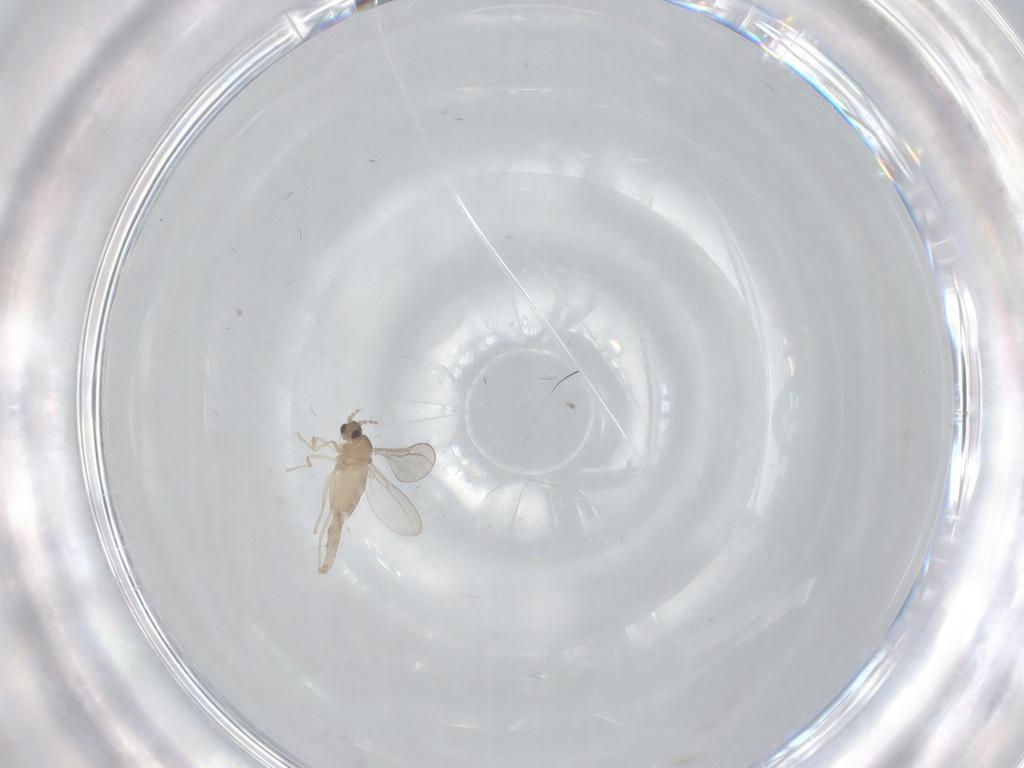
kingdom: Animalia
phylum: Arthropoda
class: Insecta
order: Diptera
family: Cecidomyiidae
